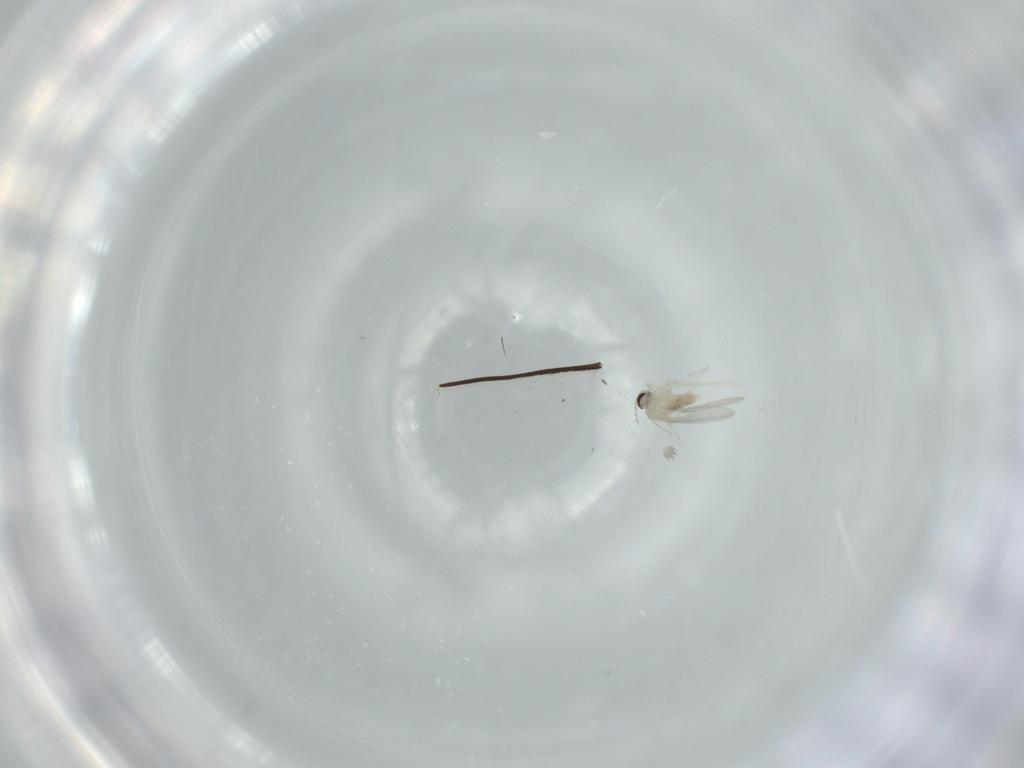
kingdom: Animalia
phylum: Arthropoda
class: Insecta
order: Diptera
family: Cecidomyiidae
